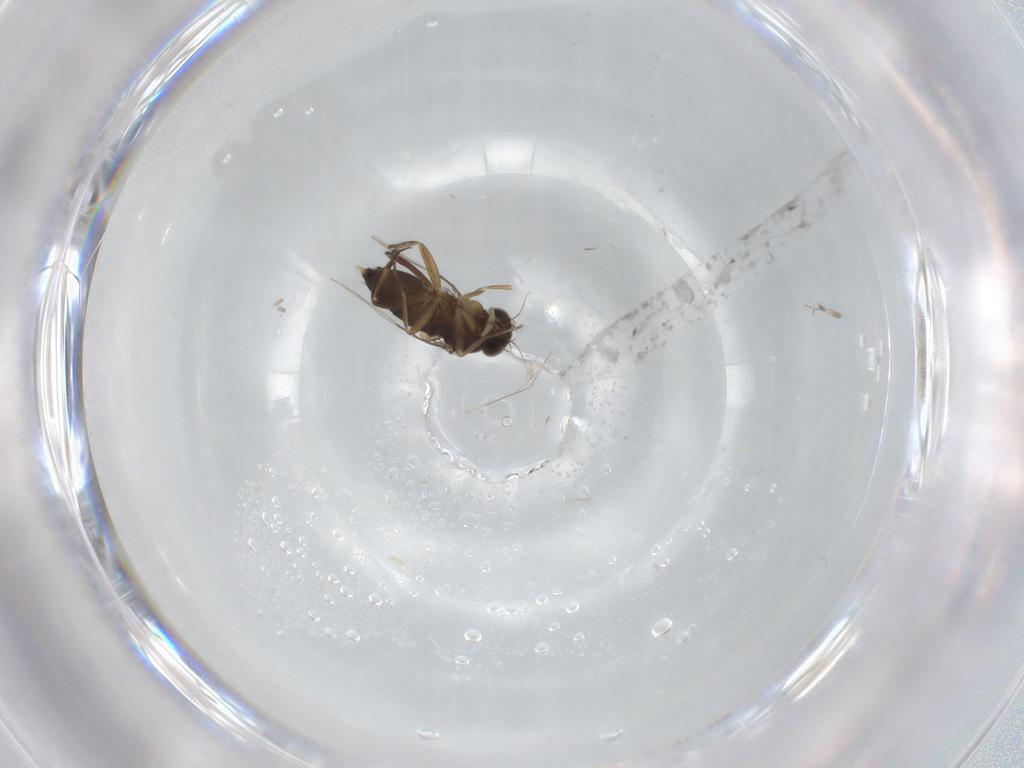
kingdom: Animalia
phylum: Arthropoda
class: Insecta
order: Diptera
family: Phoridae
